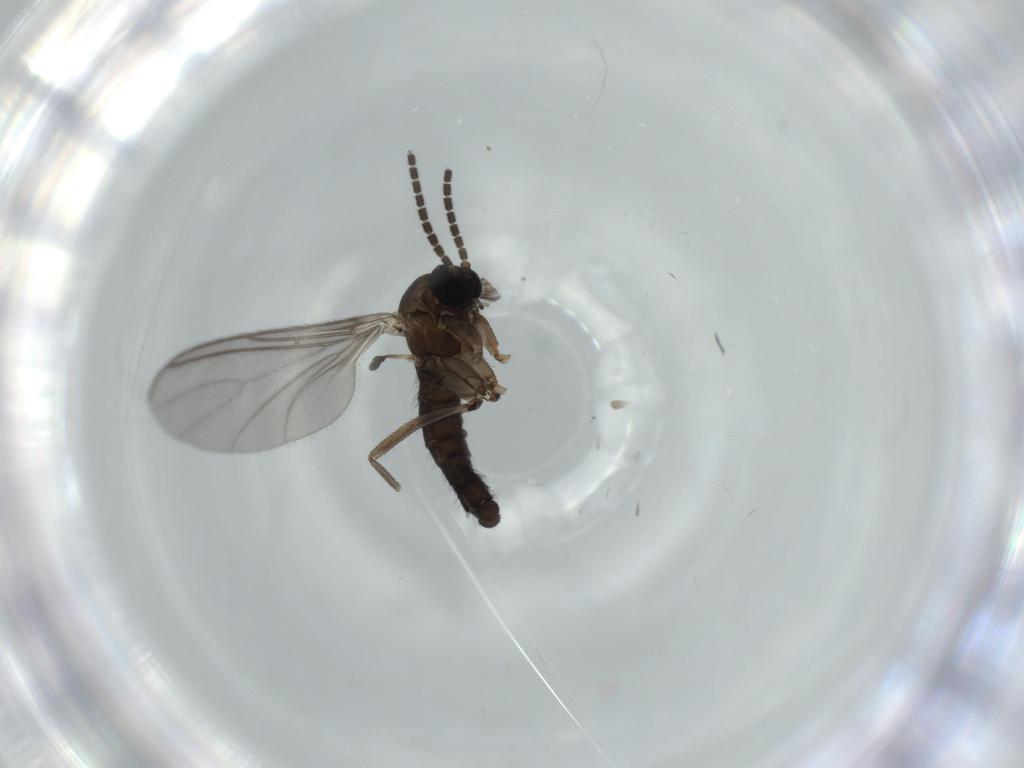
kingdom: Animalia
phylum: Arthropoda
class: Insecta
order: Diptera
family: Sciaridae
